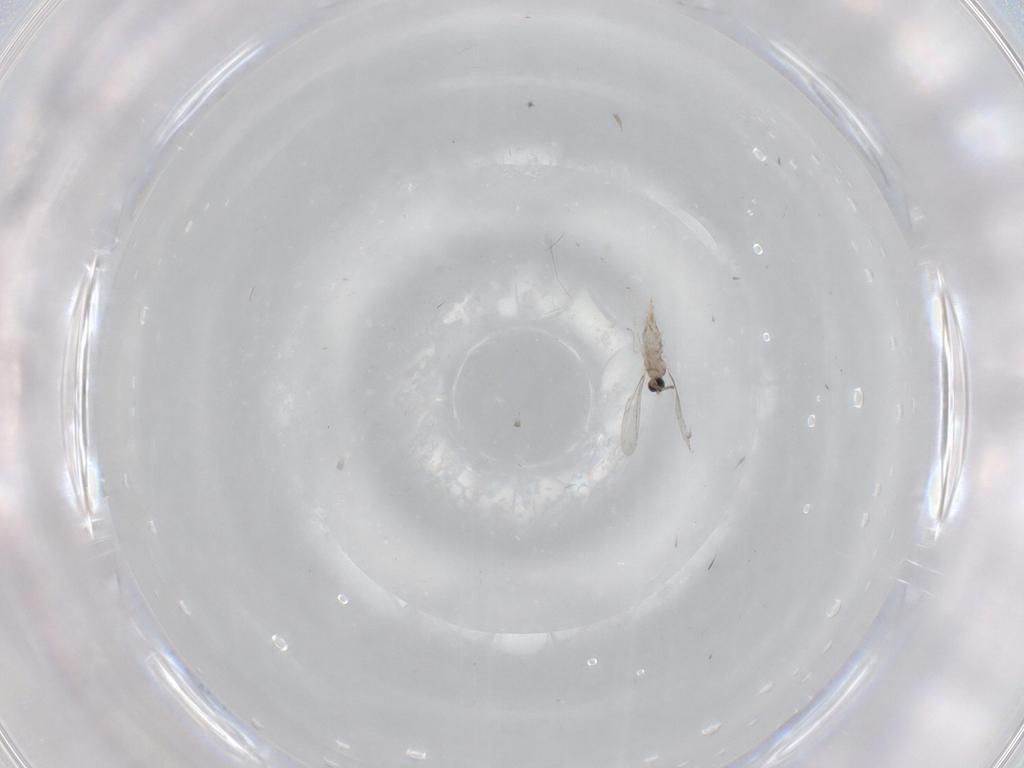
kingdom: Animalia
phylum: Arthropoda
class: Insecta
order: Diptera
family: Cecidomyiidae
